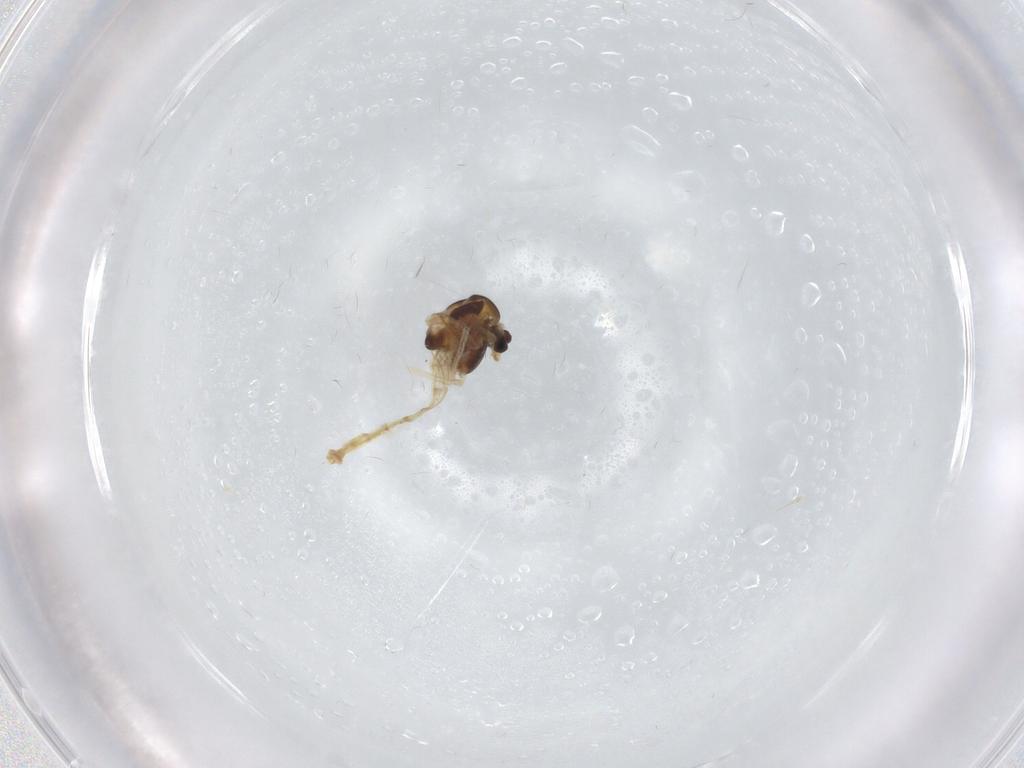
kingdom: Animalia
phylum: Arthropoda
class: Insecta
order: Diptera
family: Chironomidae
